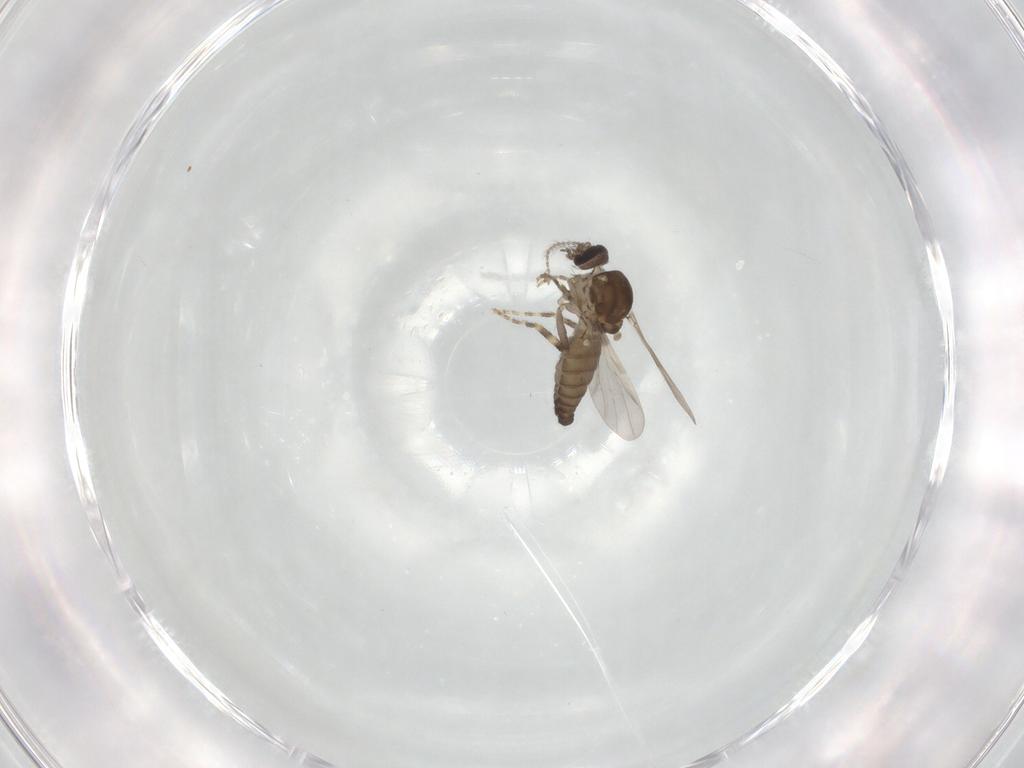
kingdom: Animalia
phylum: Arthropoda
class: Insecta
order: Diptera
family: Ceratopogonidae
